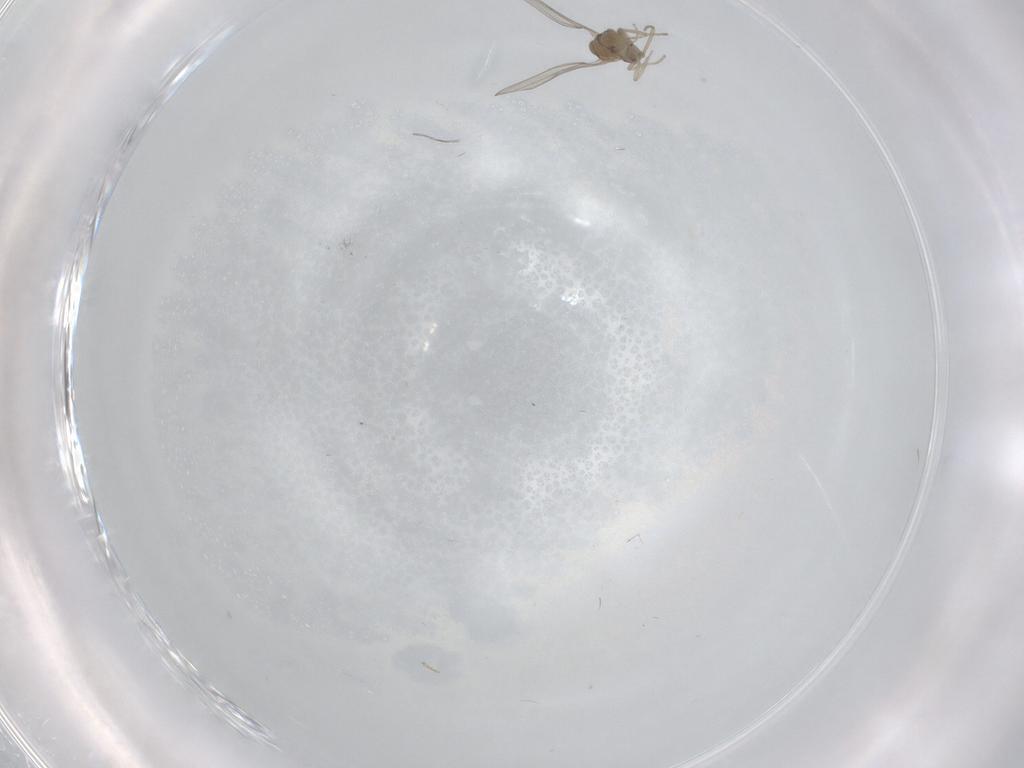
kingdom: Animalia
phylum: Arthropoda
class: Insecta
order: Diptera
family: Cecidomyiidae
